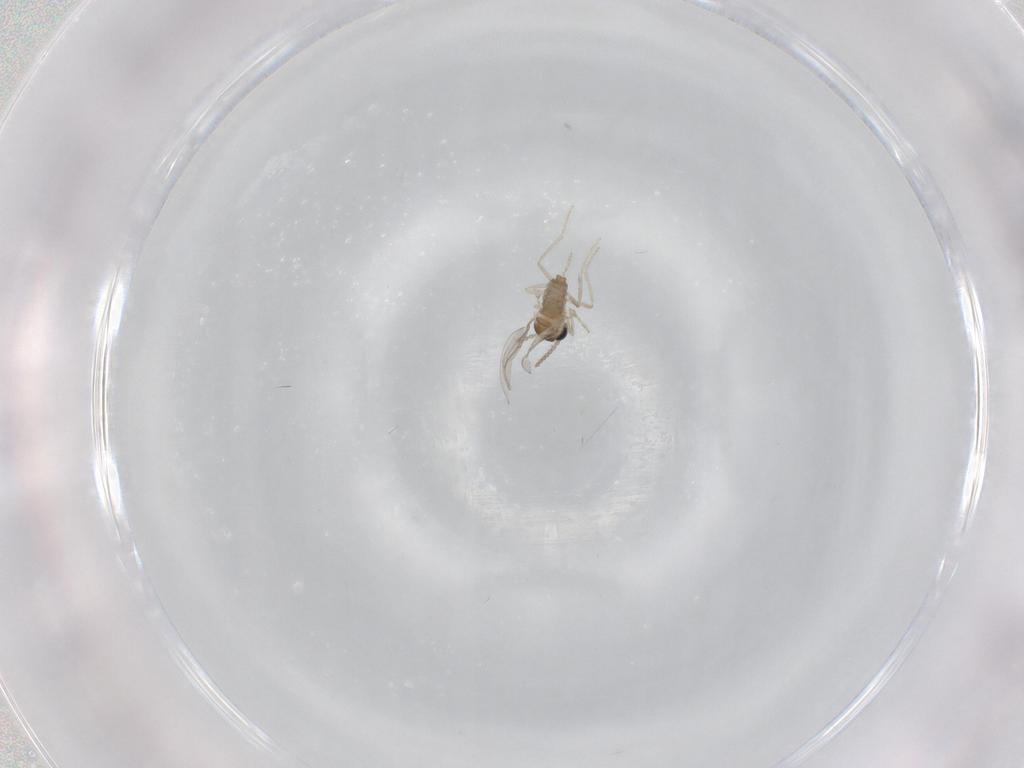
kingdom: Animalia
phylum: Arthropoda
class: Insecta
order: Diptera
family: Cecidomyiidae
